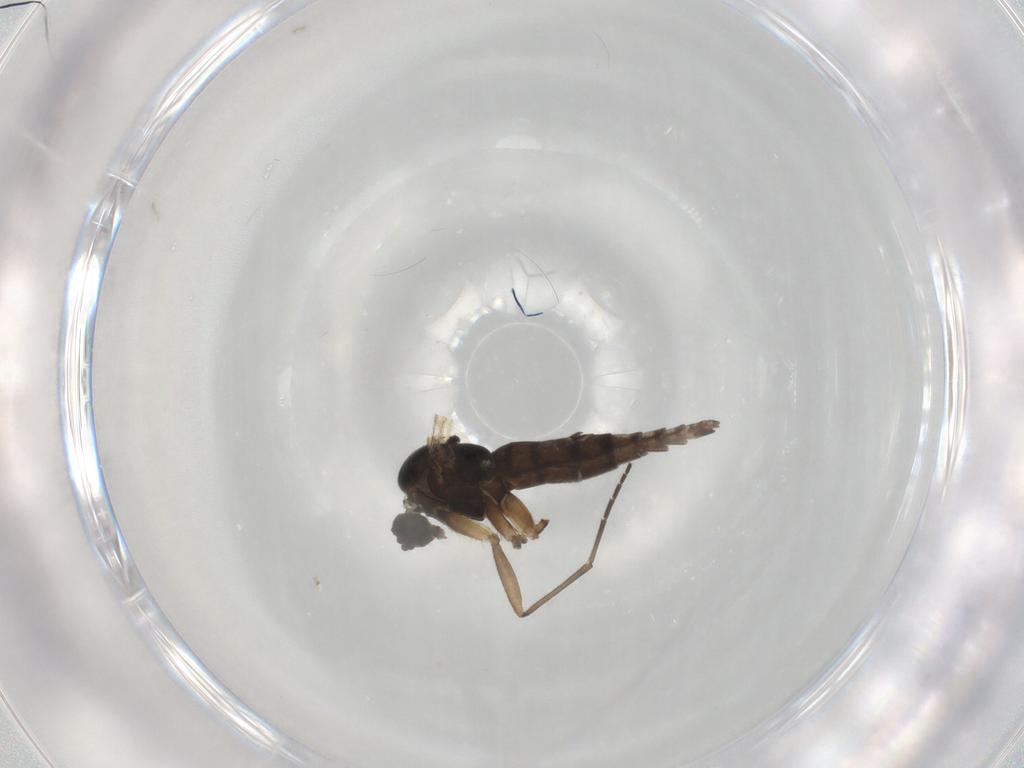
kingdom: Animalia
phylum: Arthropoda
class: Insecta
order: Diptera
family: Sciaridae
